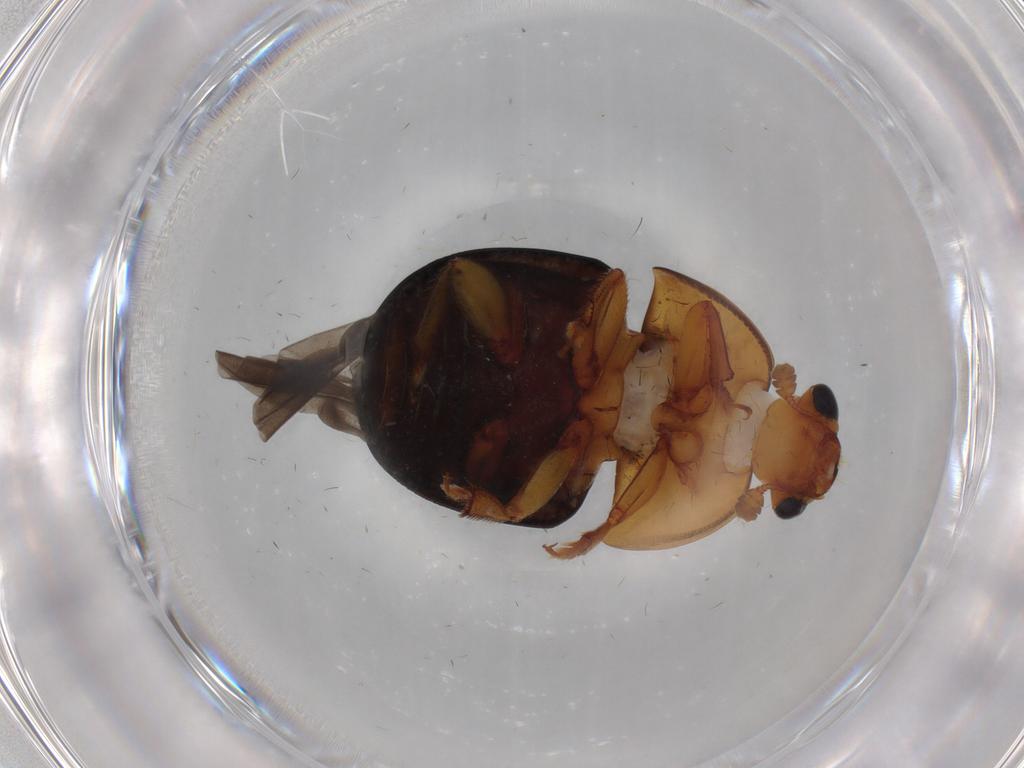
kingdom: Animalia
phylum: Arthropoda
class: Insecta
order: Coleoptera
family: Nitidulidae
